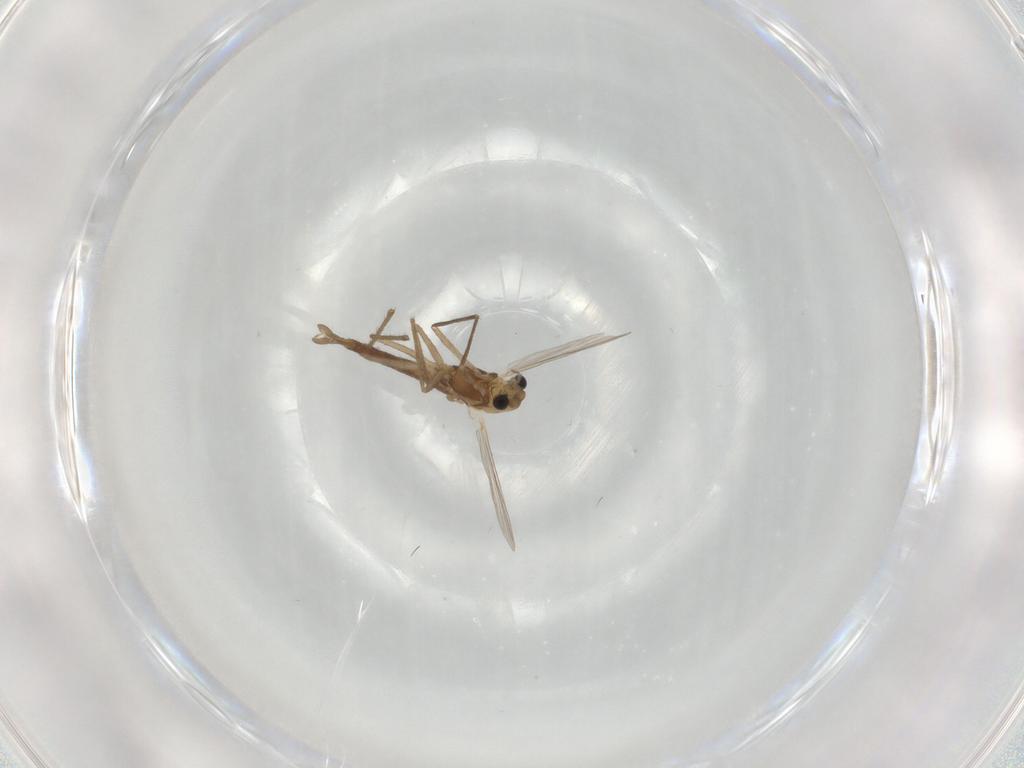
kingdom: Animalia
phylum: Arthropoda
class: Insecta
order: Diptera
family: Chironomidae
